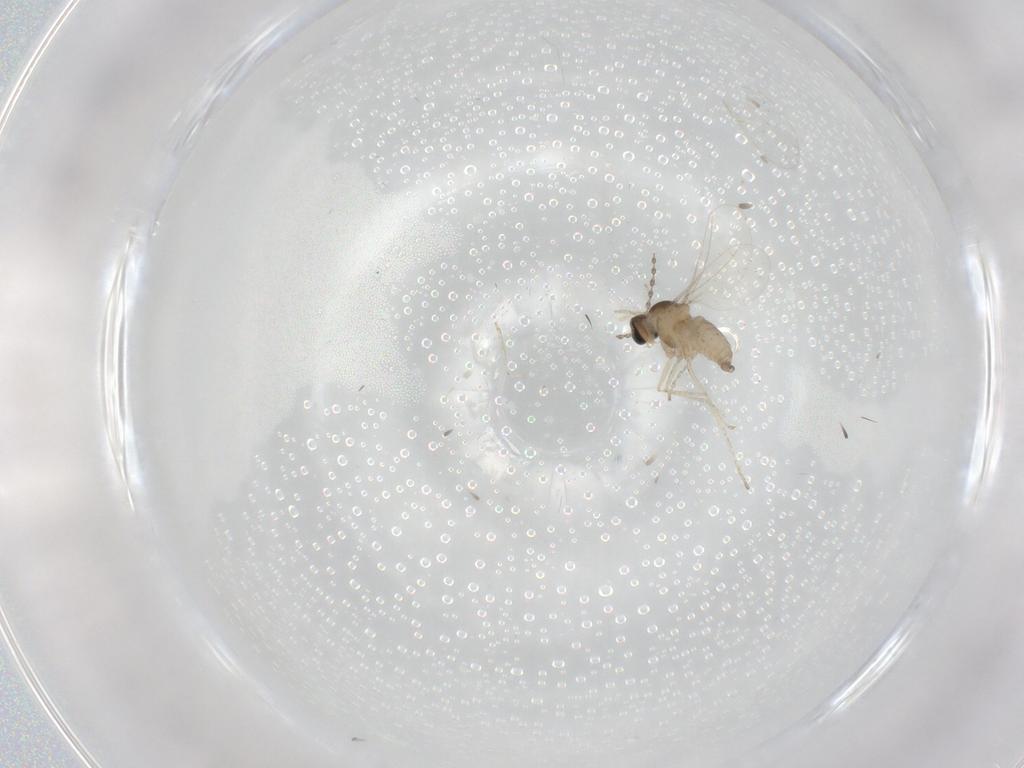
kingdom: Animalia
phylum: Arthropoda
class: Insecta
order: Diptera
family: Cecidomyiidae
